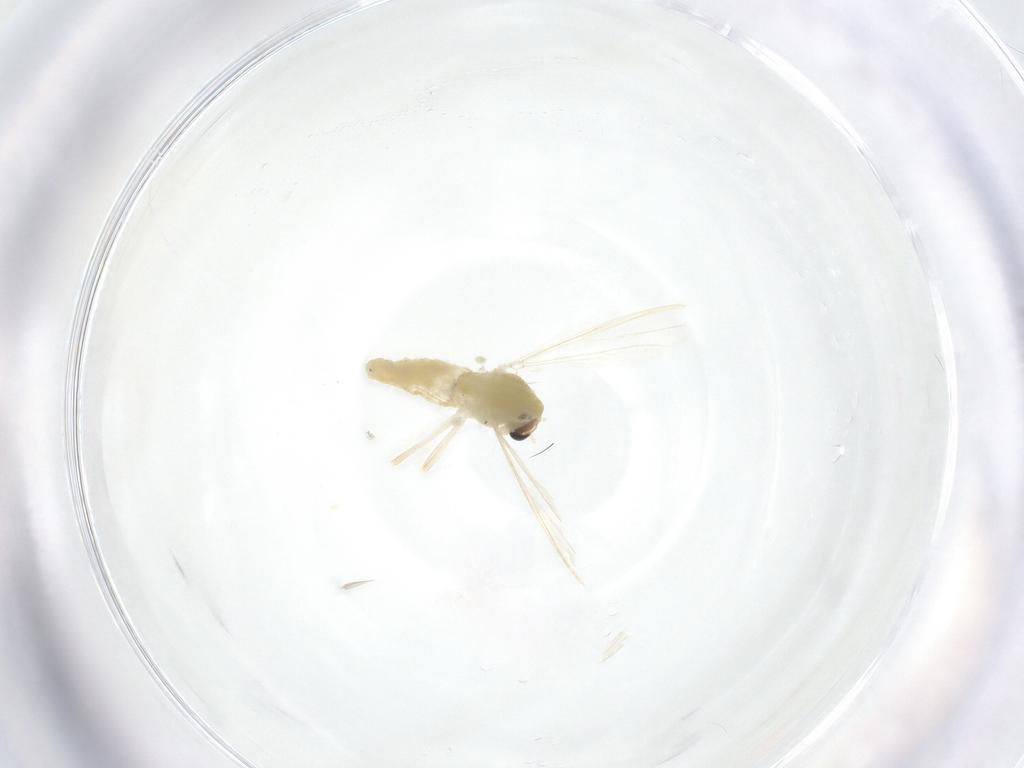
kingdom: Animalia
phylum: Arthropoda
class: Insecta
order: Diptera
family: Chironomidae
